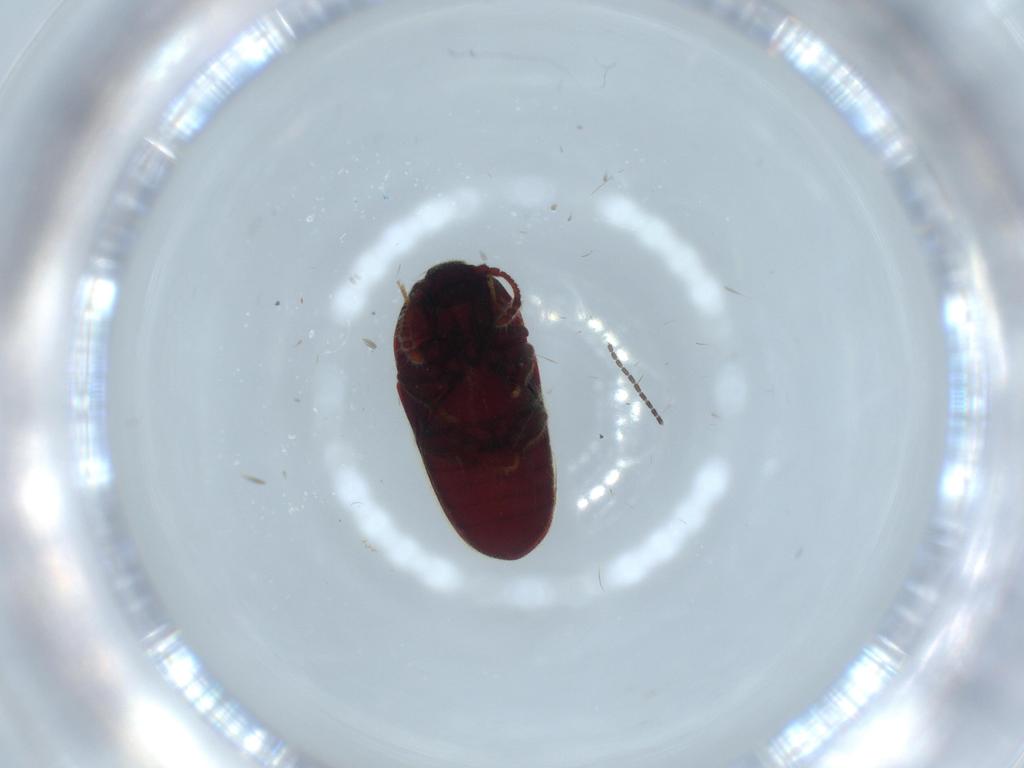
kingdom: Animalia
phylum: Arthropoda
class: Insecta
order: Coleoptera
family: Throscidae
